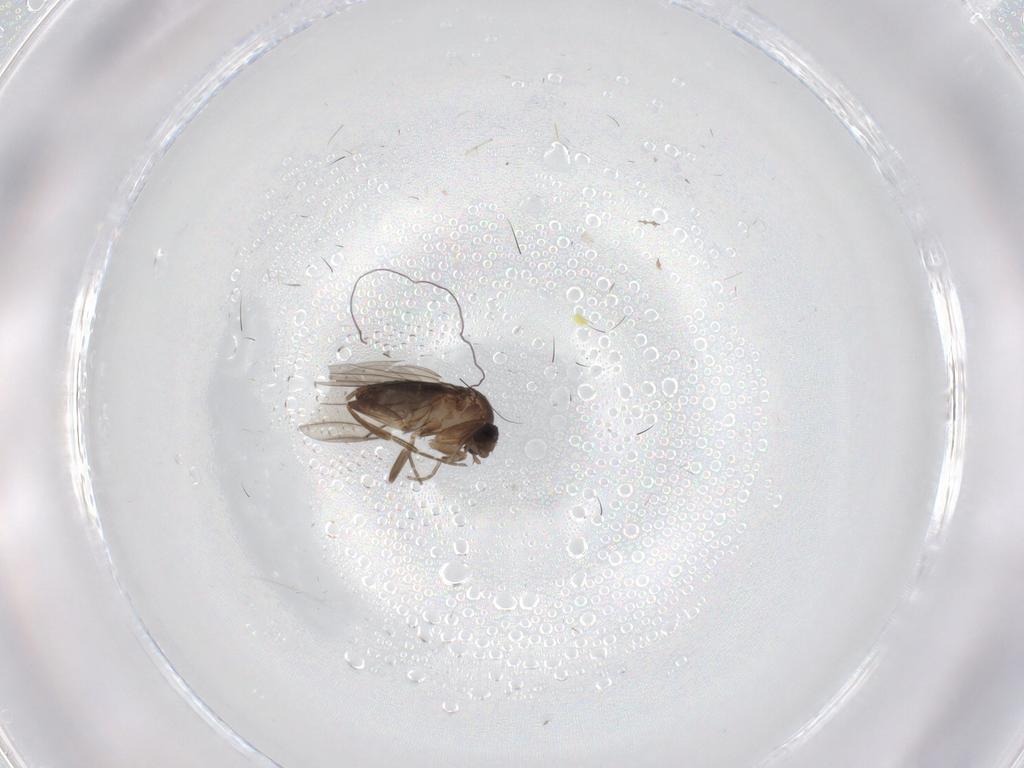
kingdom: Animalia
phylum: Arthropoda
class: Insecta
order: Diptera
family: Phoridae
